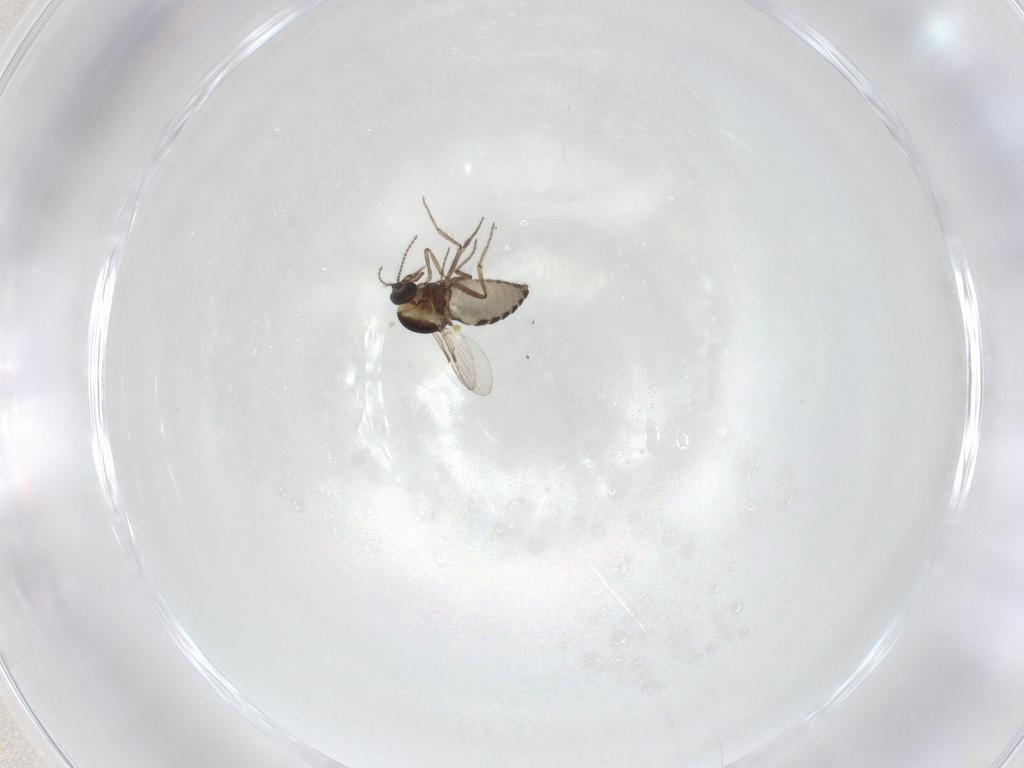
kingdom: Animalia
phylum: Arthropoda
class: Insecta
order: Diptera
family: Ceratopogonidae
